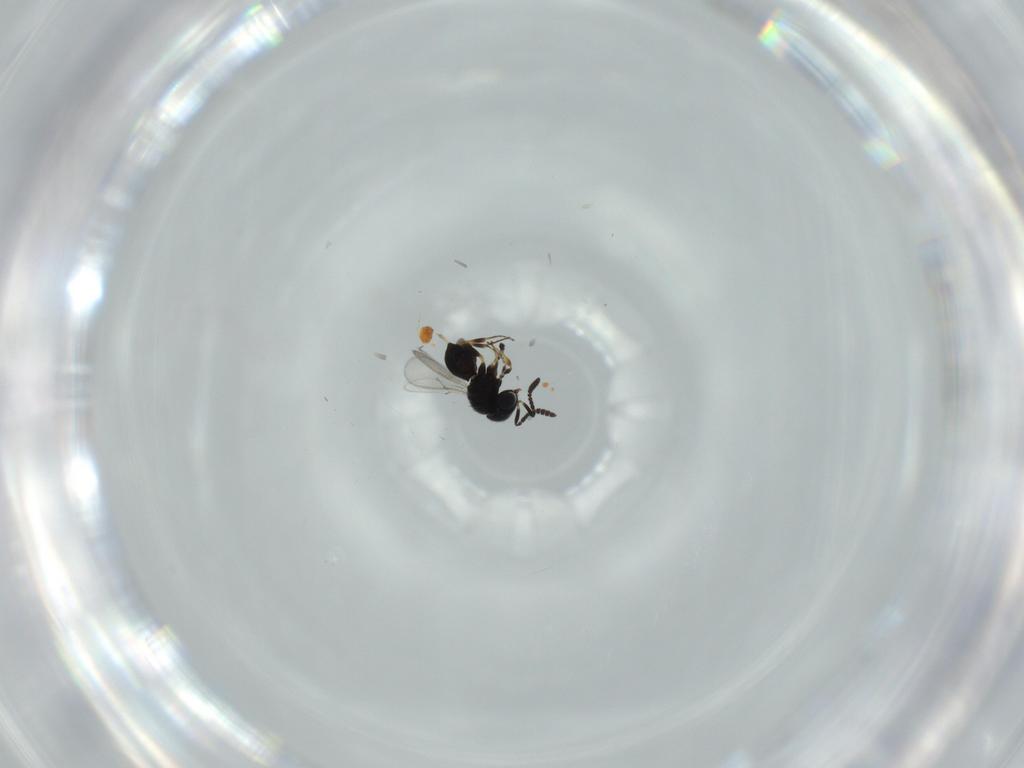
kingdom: Animalia
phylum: Arthropoda
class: Insecta
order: Hymenoptera
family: Scelionidae
